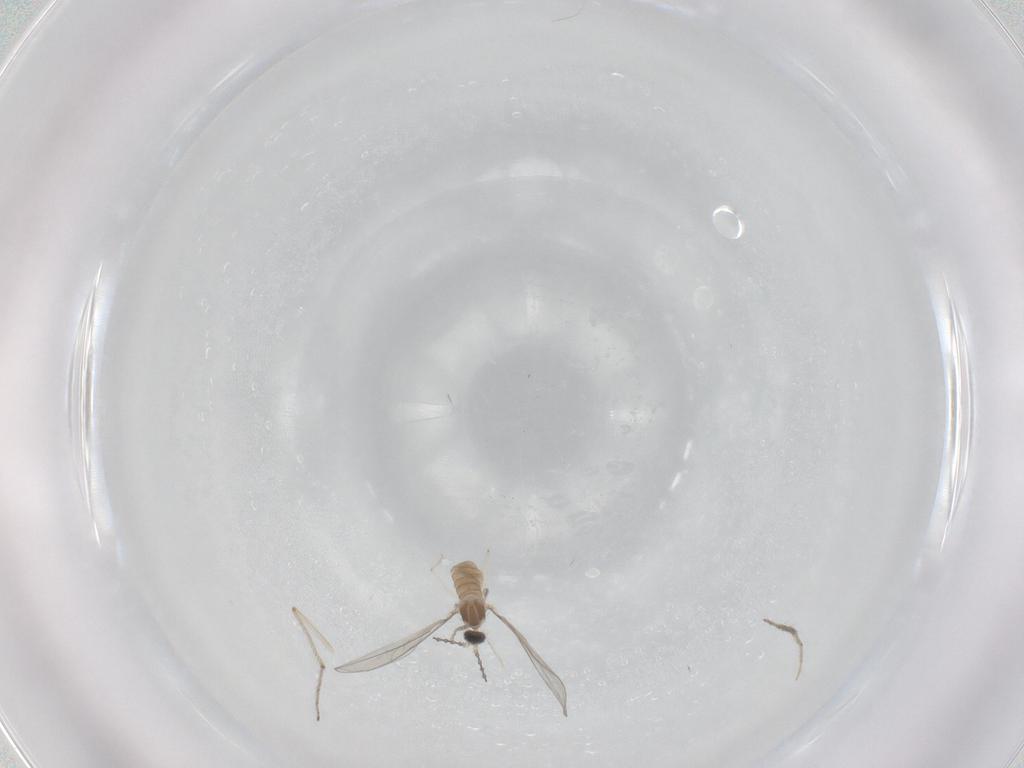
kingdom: Animalia
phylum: Arthropoda
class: Insecta
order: Diptera
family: Cecidomyiidae
